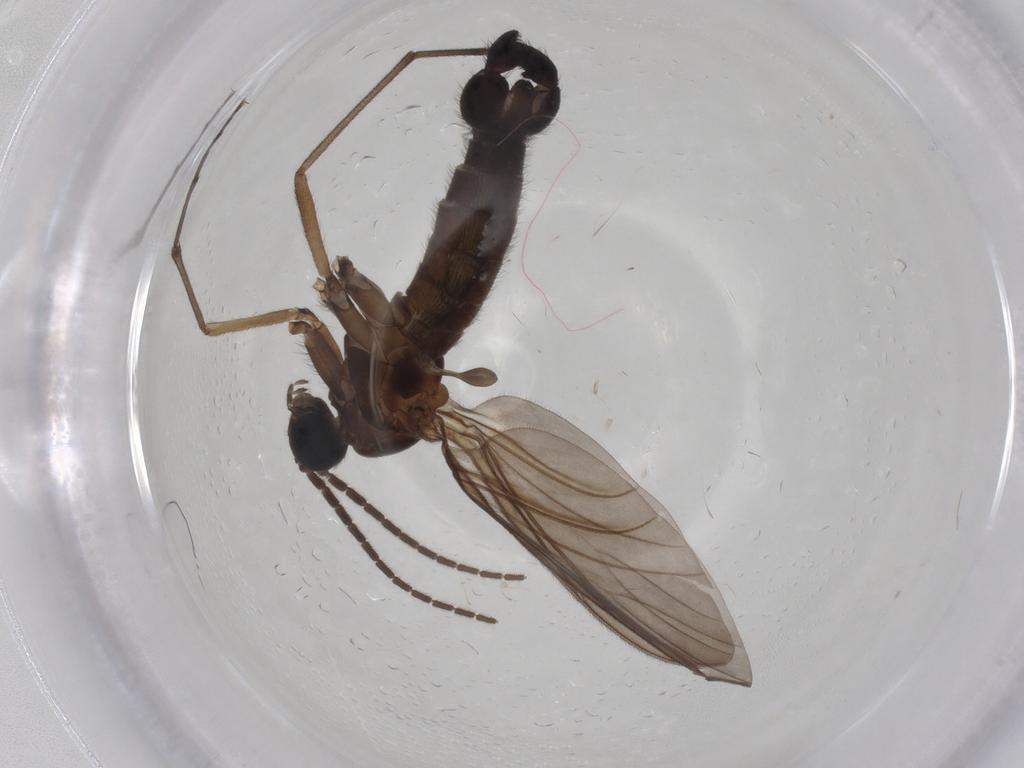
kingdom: Animalia
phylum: Arthropoda
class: Insecta
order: Diptera
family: Sciaridae
